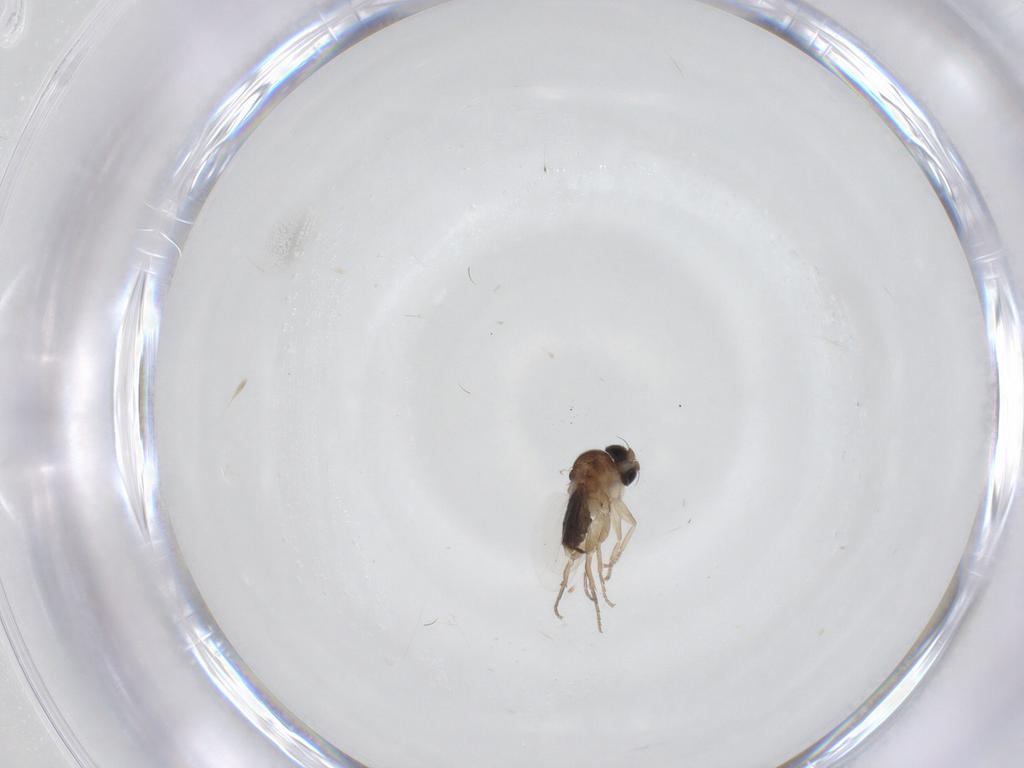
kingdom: Animalia
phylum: Arthropoda
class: Insecta
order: Diptera
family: Phoridae
